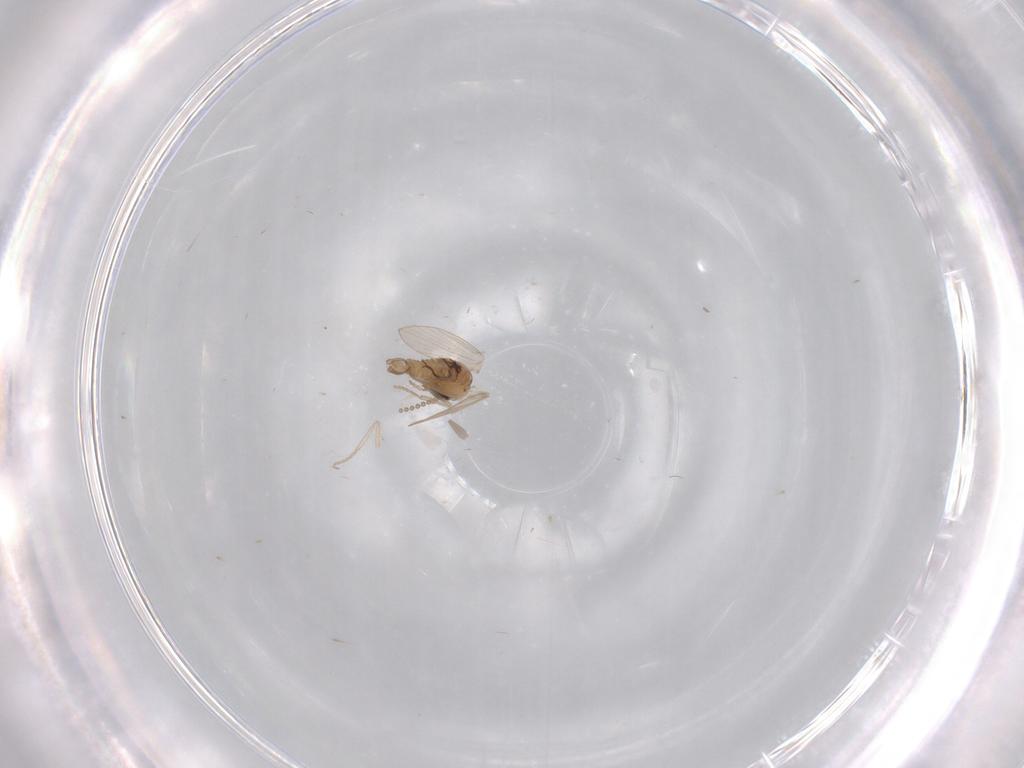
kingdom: Animalia
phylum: Arthropoda
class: Insecta
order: Diptera
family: Psychodidae
